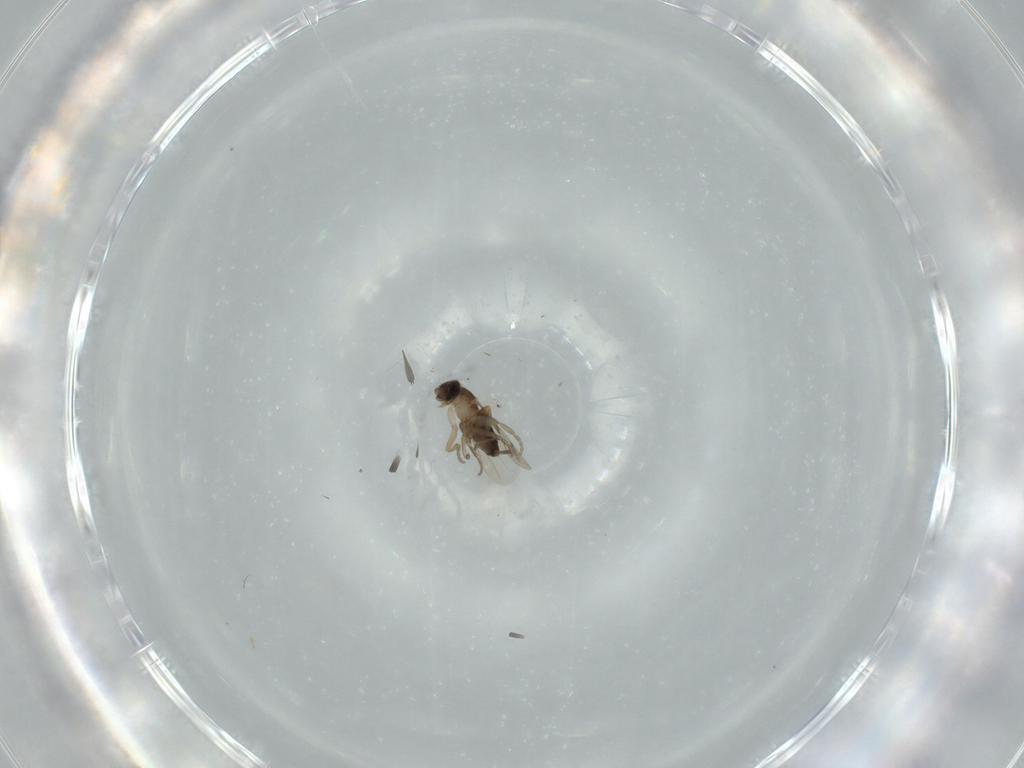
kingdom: Animalia
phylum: Arthropoda
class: Insecta
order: Diptera
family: Phoridae
